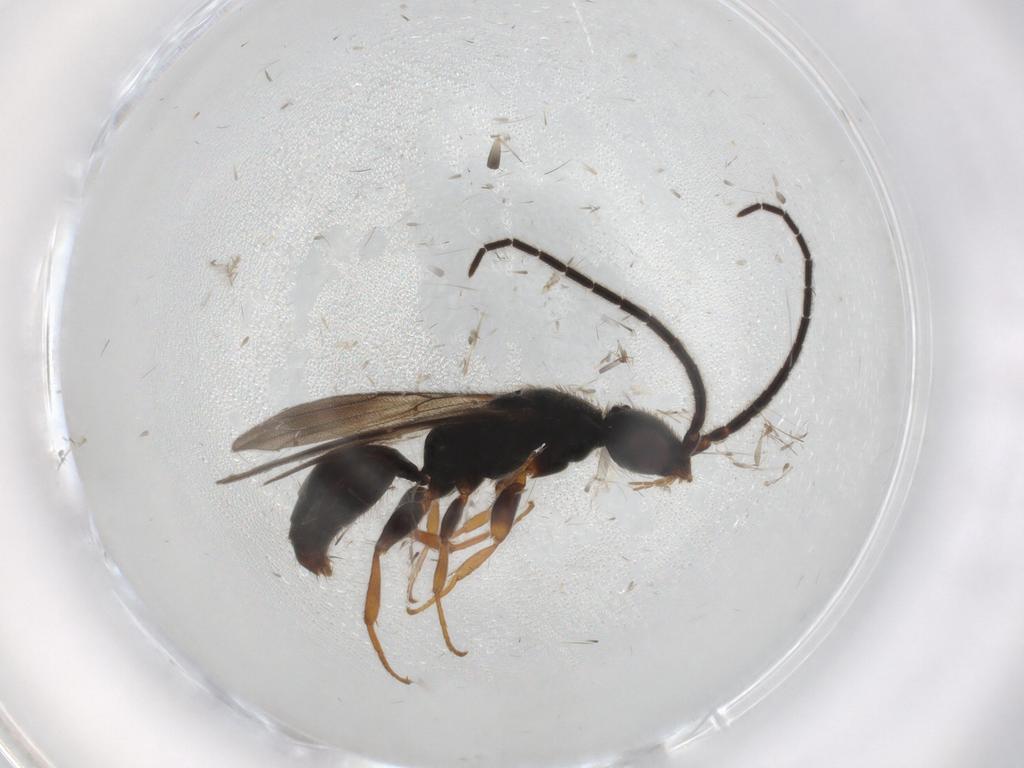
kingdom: Animalia
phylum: Arthropoda
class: Insecta
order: Hymenoptera
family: Bethylidae
